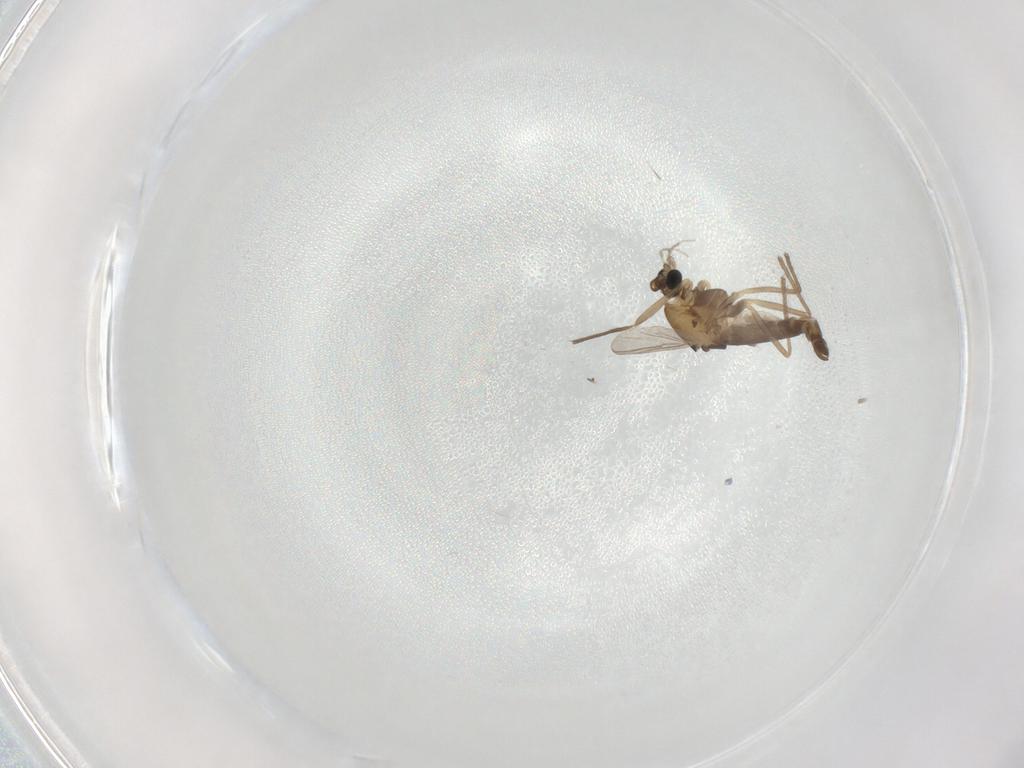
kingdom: Animalia
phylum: Arthropoda
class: Insecta
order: Diptera
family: Chironomidae
